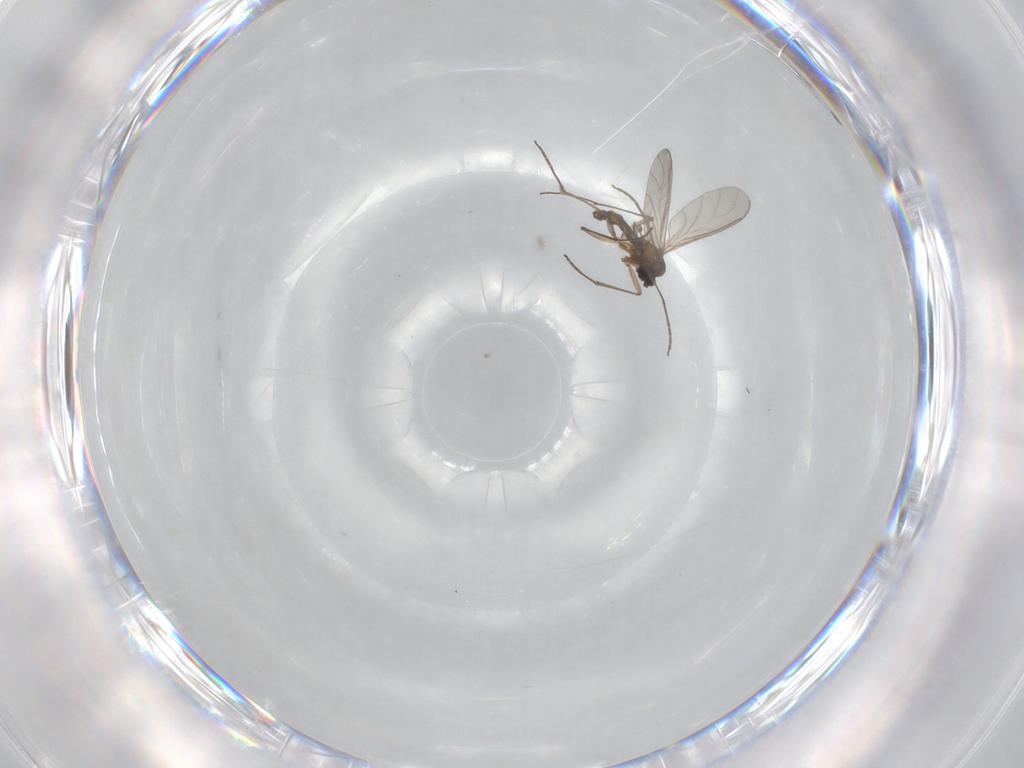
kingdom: Animalia
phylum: Arthropoda
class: Insecta
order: Diptera
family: Sciaridae
